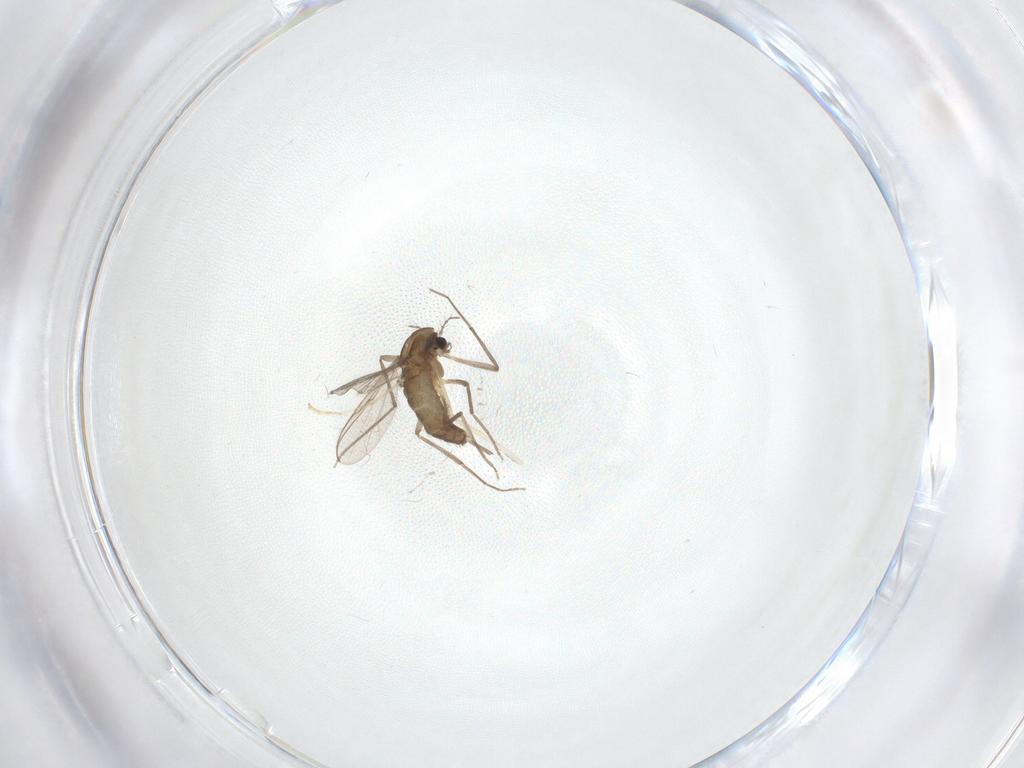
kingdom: Animalia
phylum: Arthropoda
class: Insecta
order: Diptera
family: Chironomidae
